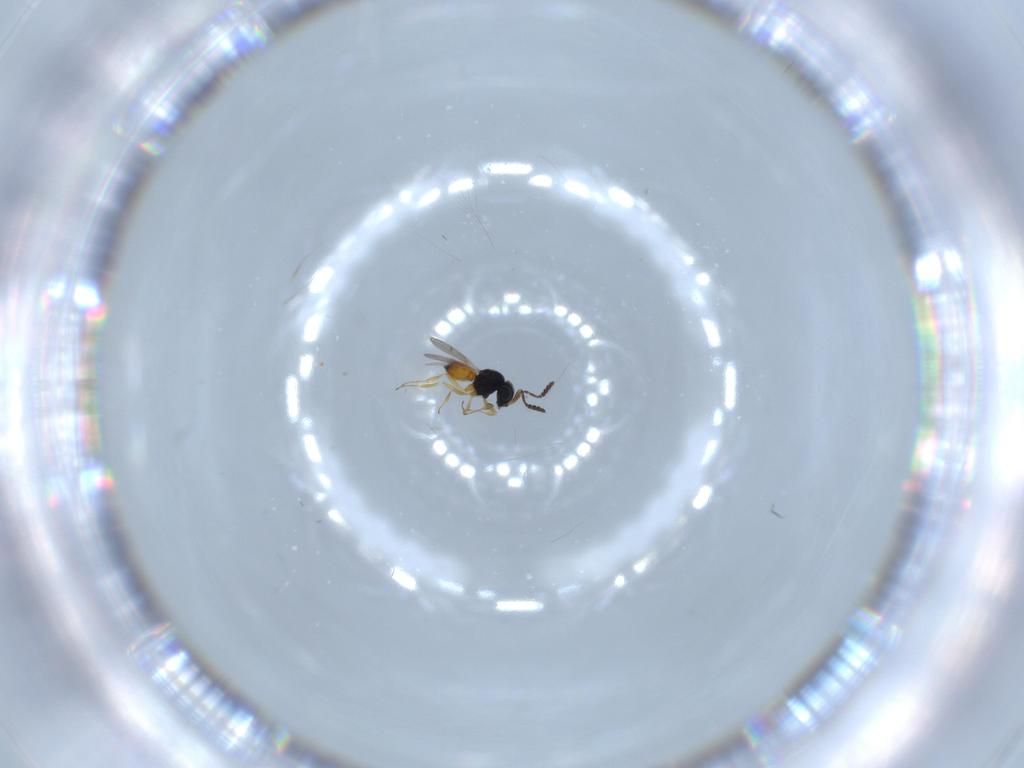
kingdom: Animalia
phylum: Arthropoda
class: Insecta
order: Hymenoptera
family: Scelionidae
